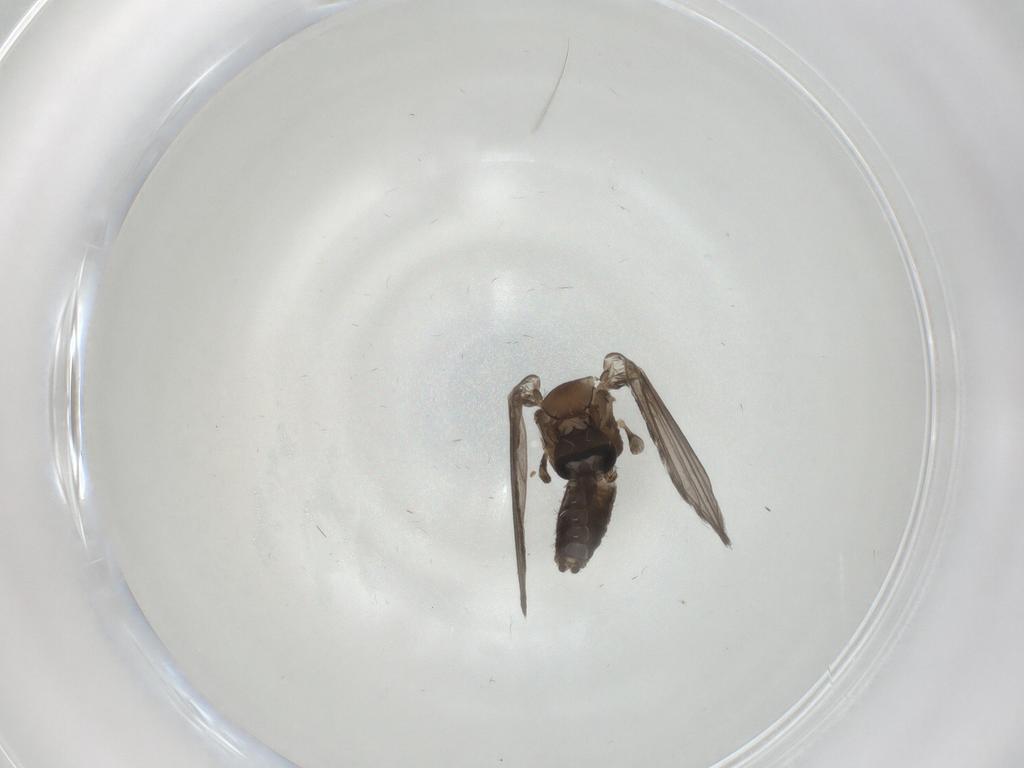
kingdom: Animalia
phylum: Arthropoda
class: Insecta
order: Diptera
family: Psychodidae
